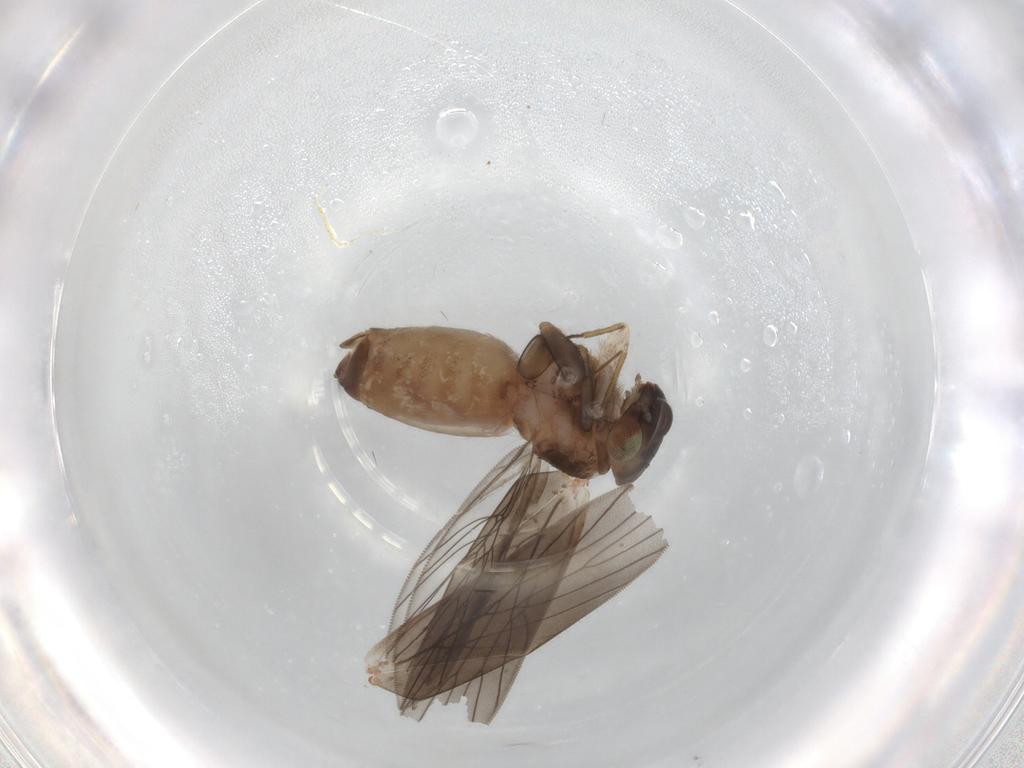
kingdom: Animalia
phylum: Arthropoda
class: Insecta
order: Psocodea
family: Lepidopsocidae
